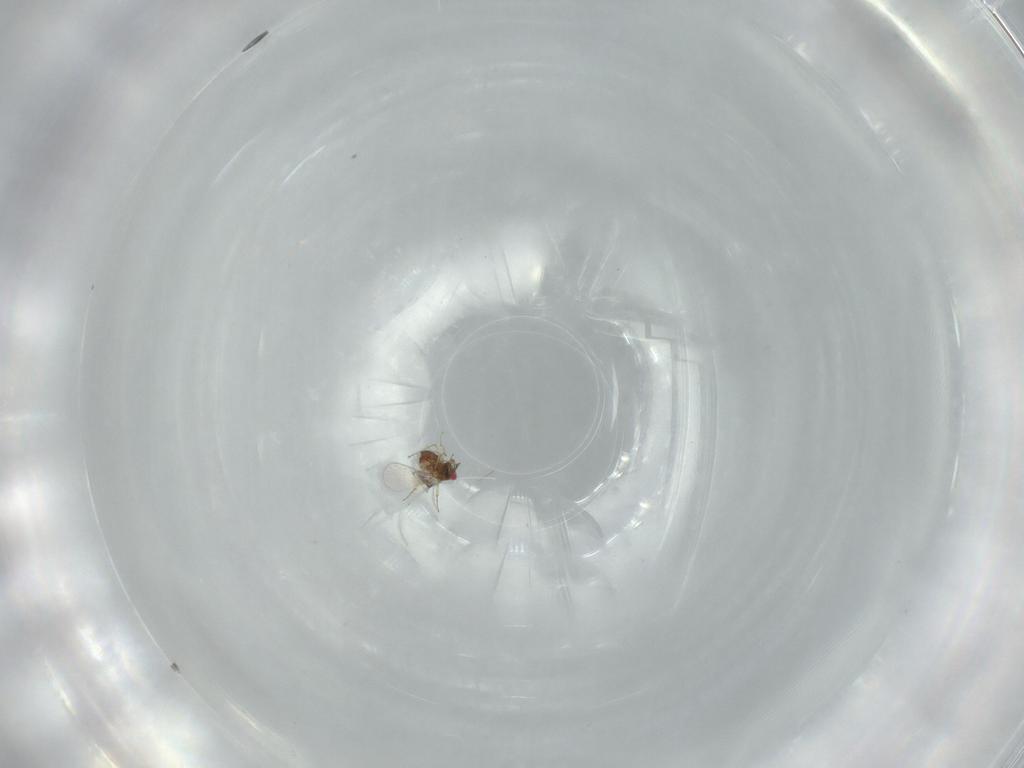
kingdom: Animalia
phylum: Arthropoda
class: Insecta
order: Hymenoptera
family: Trichogrammatidae
